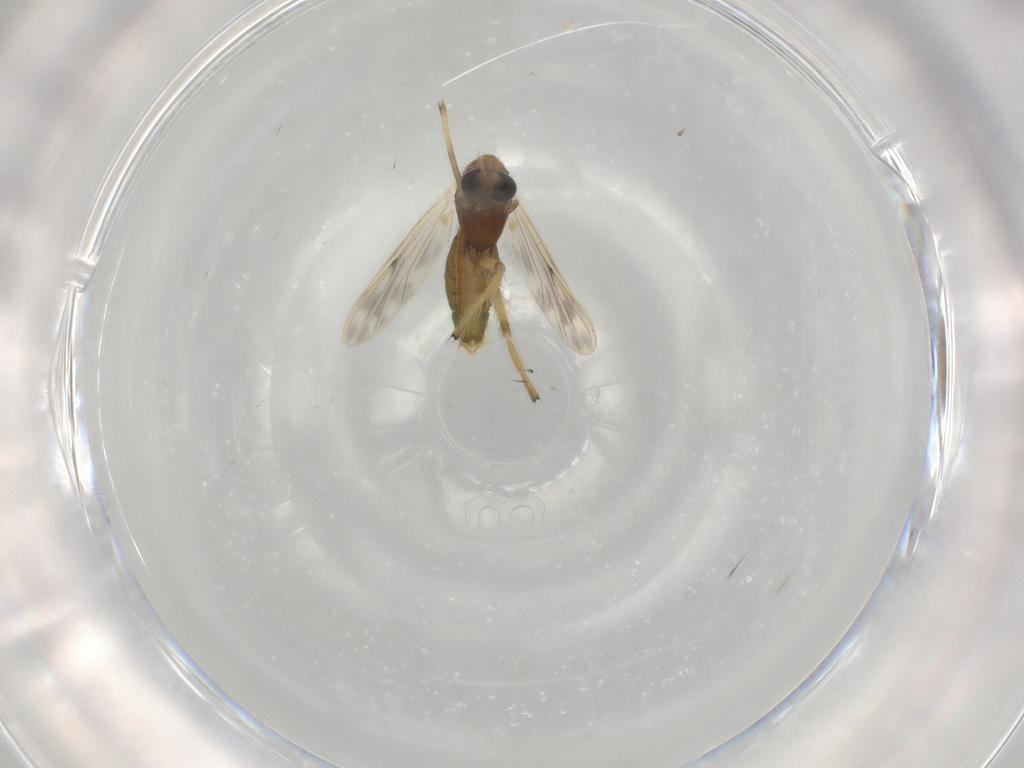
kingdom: Animalia
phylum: Arthropoda
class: Insecta
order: Diptera
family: Chironomidae
